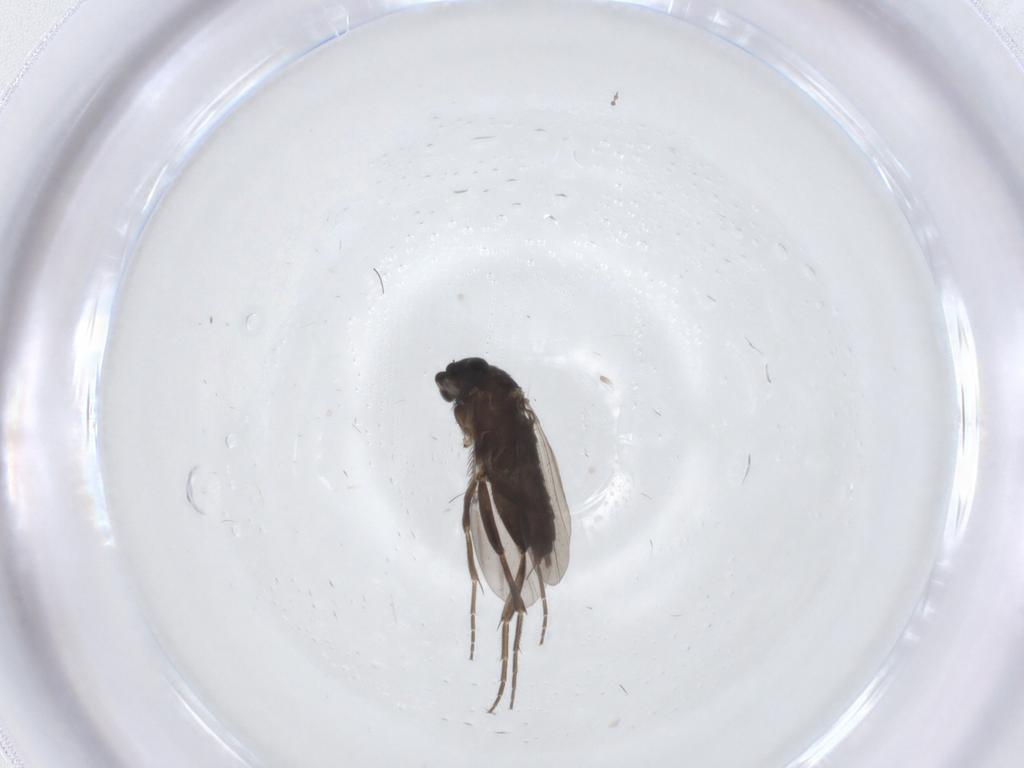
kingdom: Animalia
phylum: Arthropoda
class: Insecta
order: Diptera
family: Phoridae
